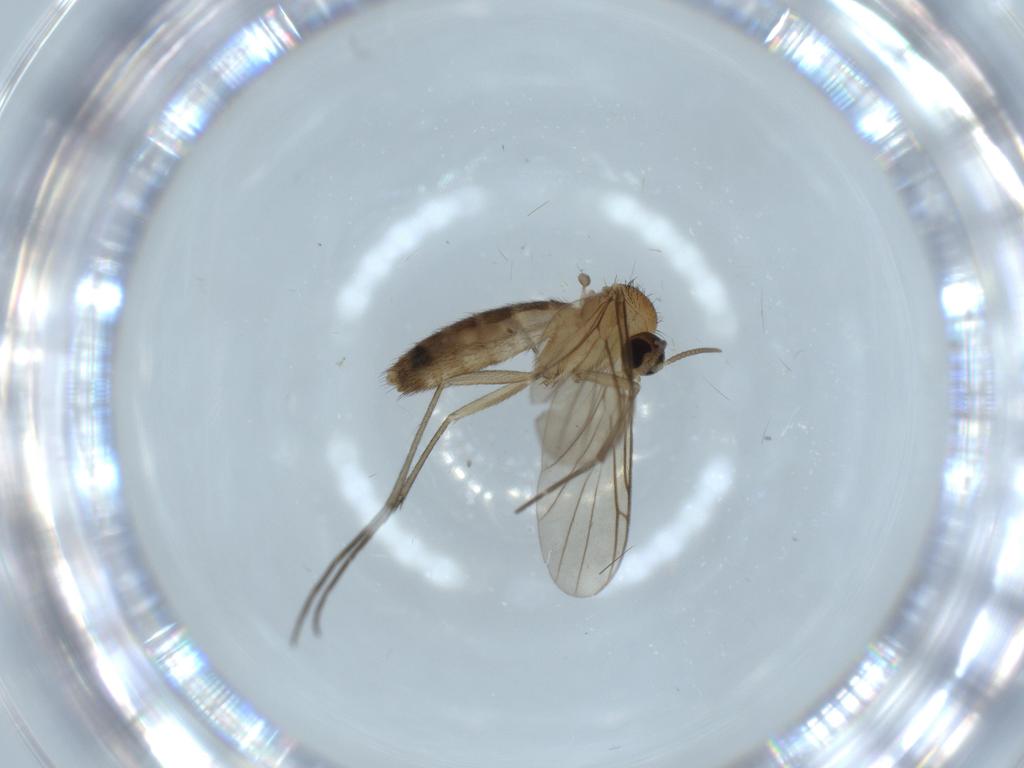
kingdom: Animalia
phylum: Arthropoda
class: Insecta
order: Diptera
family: Keroplatidae
